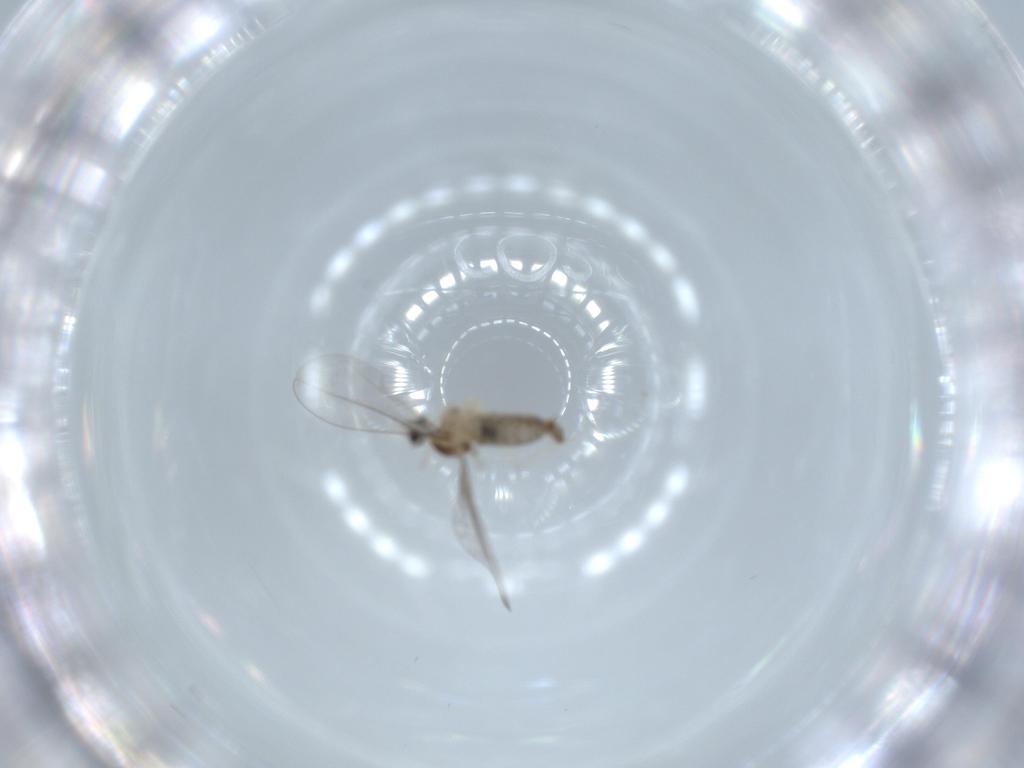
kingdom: Animalia
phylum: Arthropoda
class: Insecta
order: Diptera
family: Cecidomyiidae
